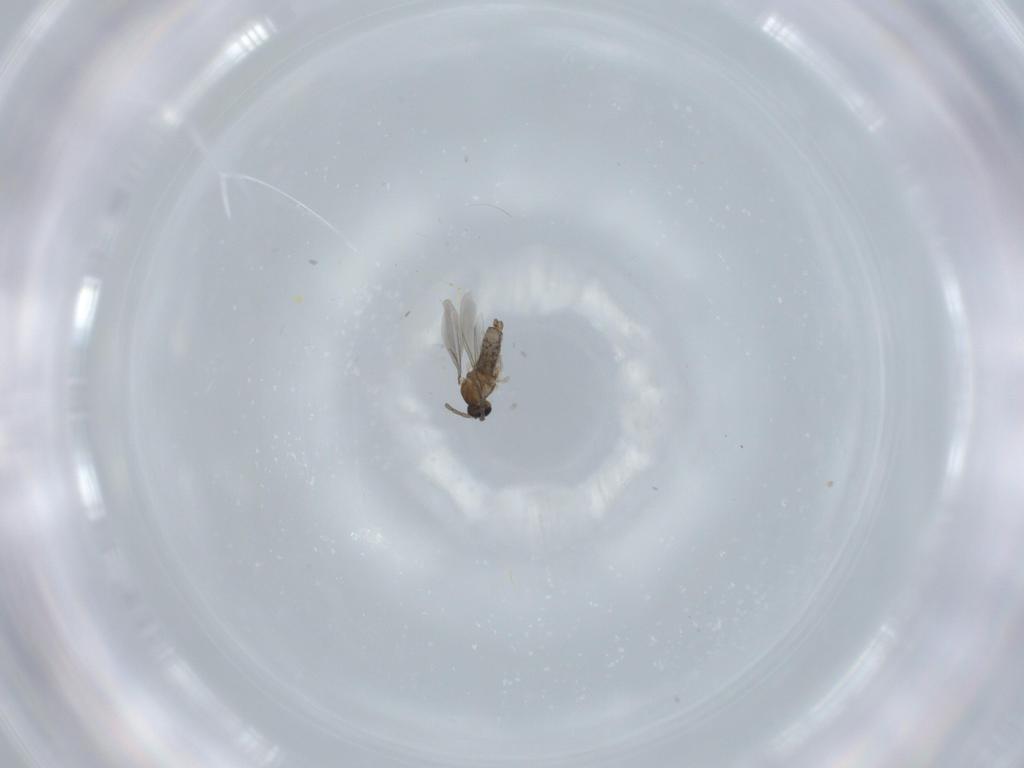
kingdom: Animalia
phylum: Arthropoda
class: Insecta
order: Diptera
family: Cecidomyiidae
